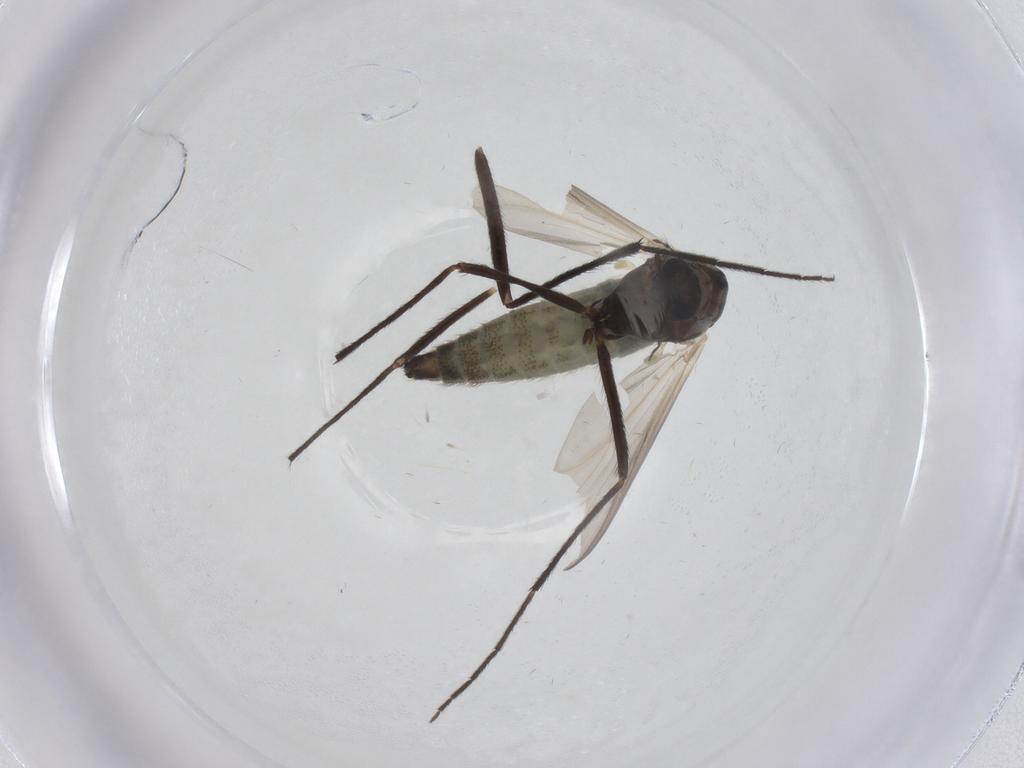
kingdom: Animalia
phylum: Arthropoda
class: Insecta
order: Diptera
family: Chironomidae
